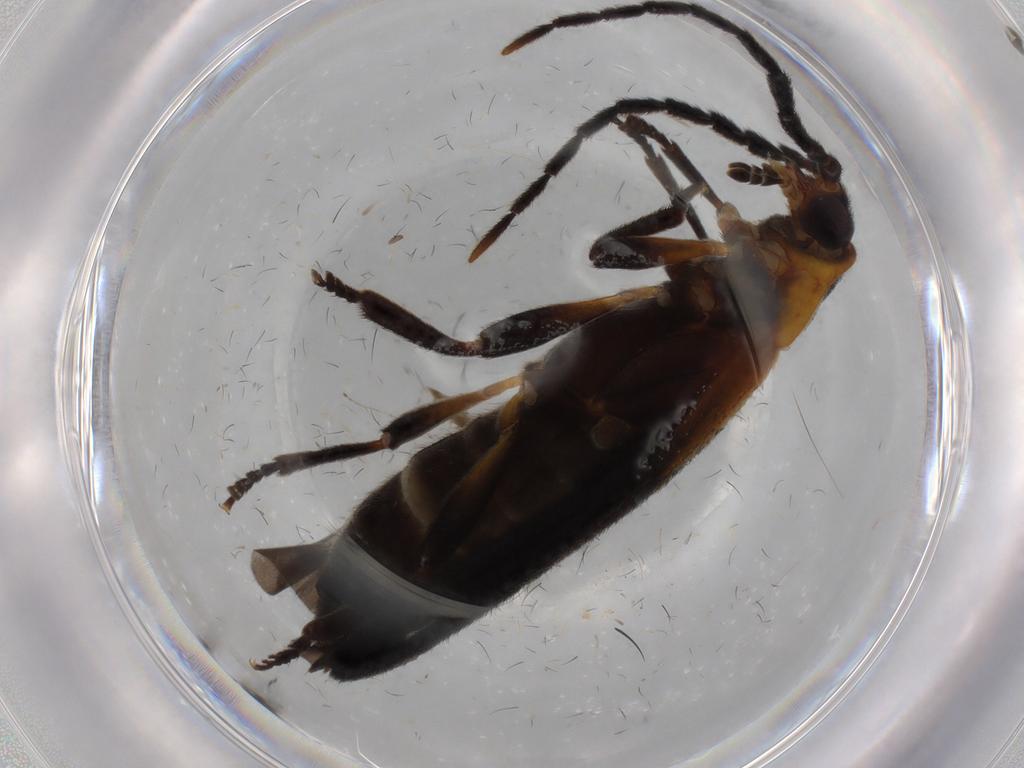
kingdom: Animalia
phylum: Arthropoda
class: Insecta
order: Coleoptera
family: Lycidae
